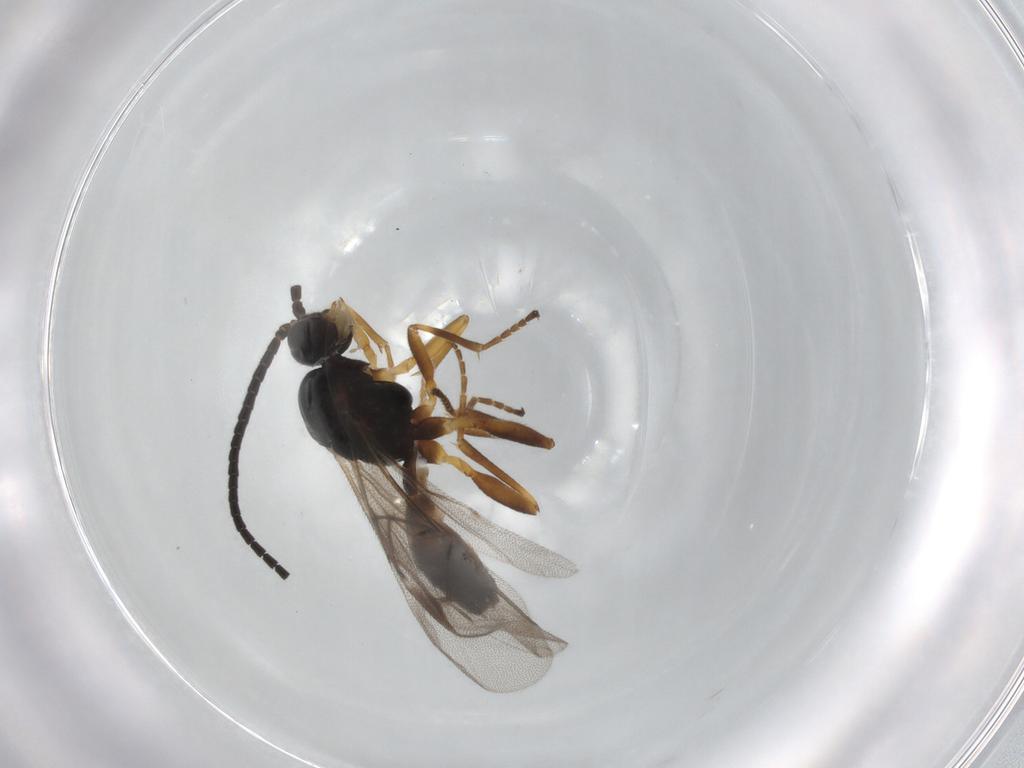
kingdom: Animalia
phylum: Arthropoda
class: Insecta
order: Hymenoptera
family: Braconidae
